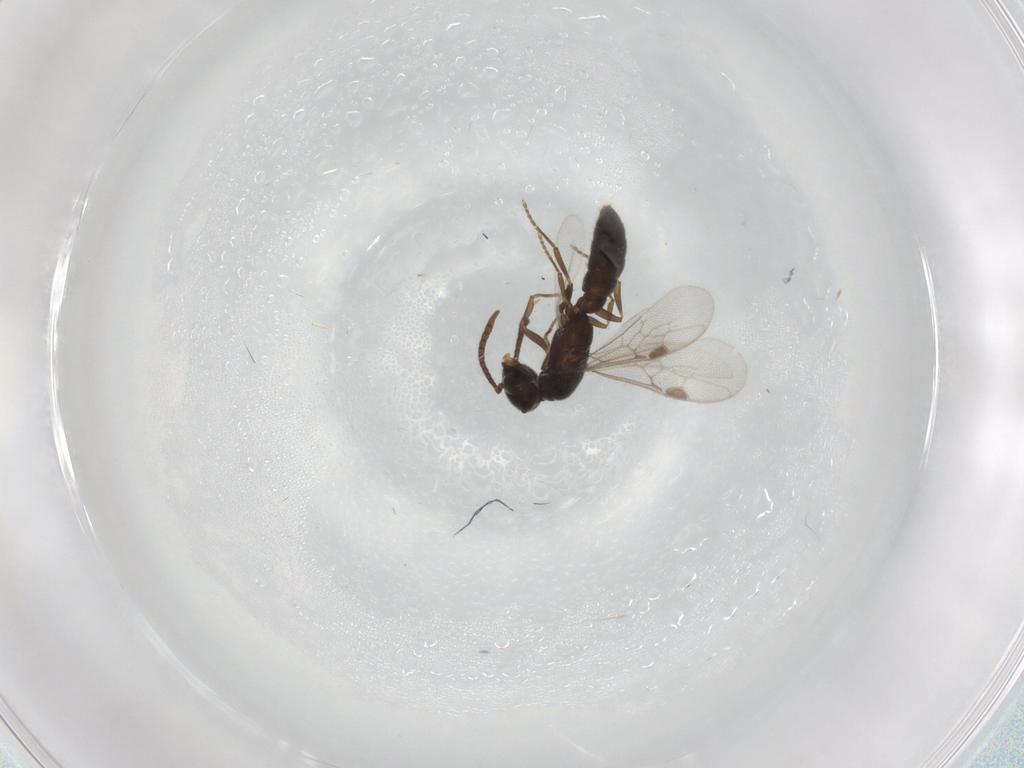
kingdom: Animalia
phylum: Arthropoda
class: Insecta
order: Hymenoptera
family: Formicidae
